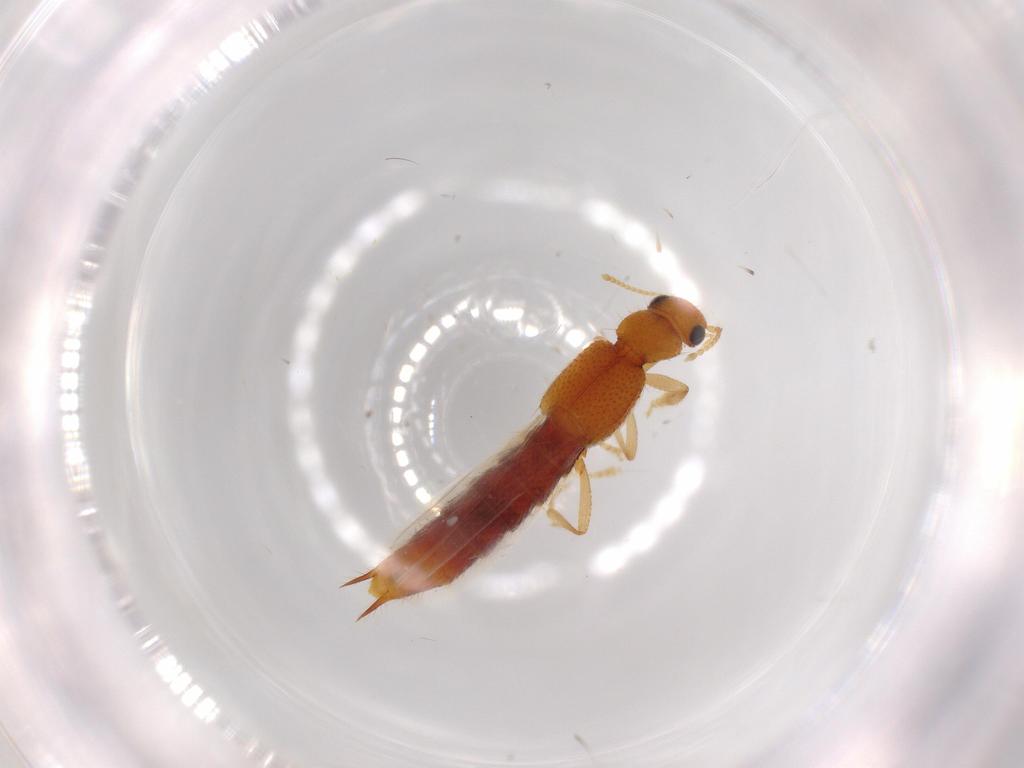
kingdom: Animalia
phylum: Arthropoda
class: Insecta
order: Coleoptera
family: Staphylinidae
